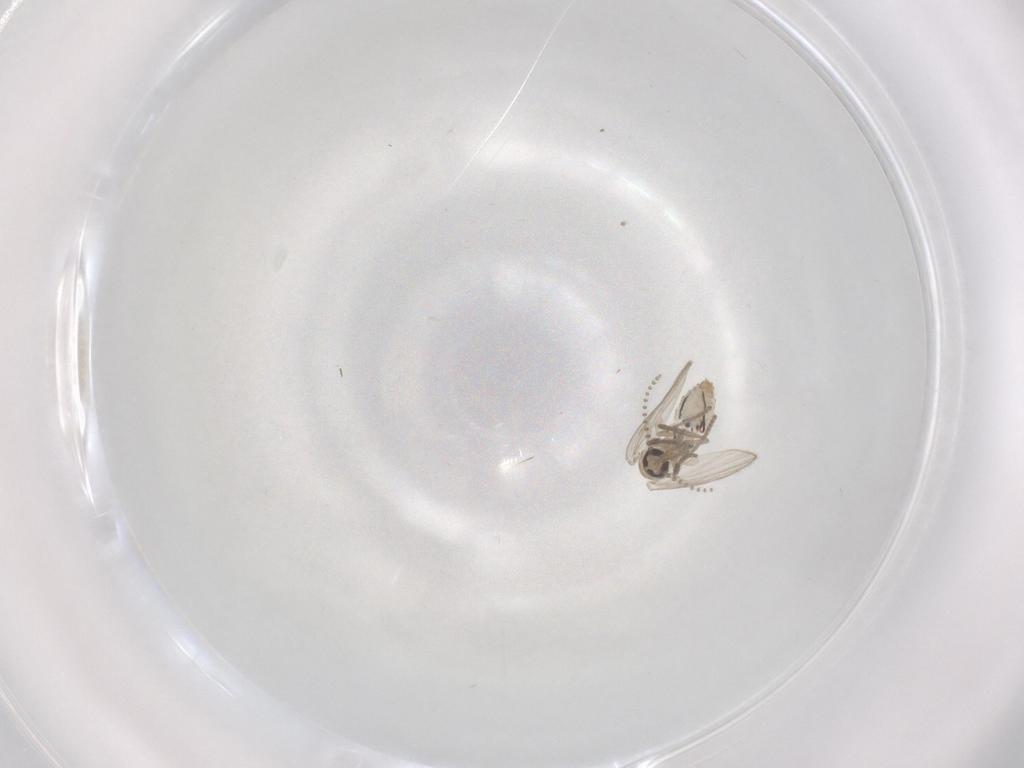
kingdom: Animalia
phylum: Arthropoda
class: Insecta
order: Diptera
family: Psychodidae
